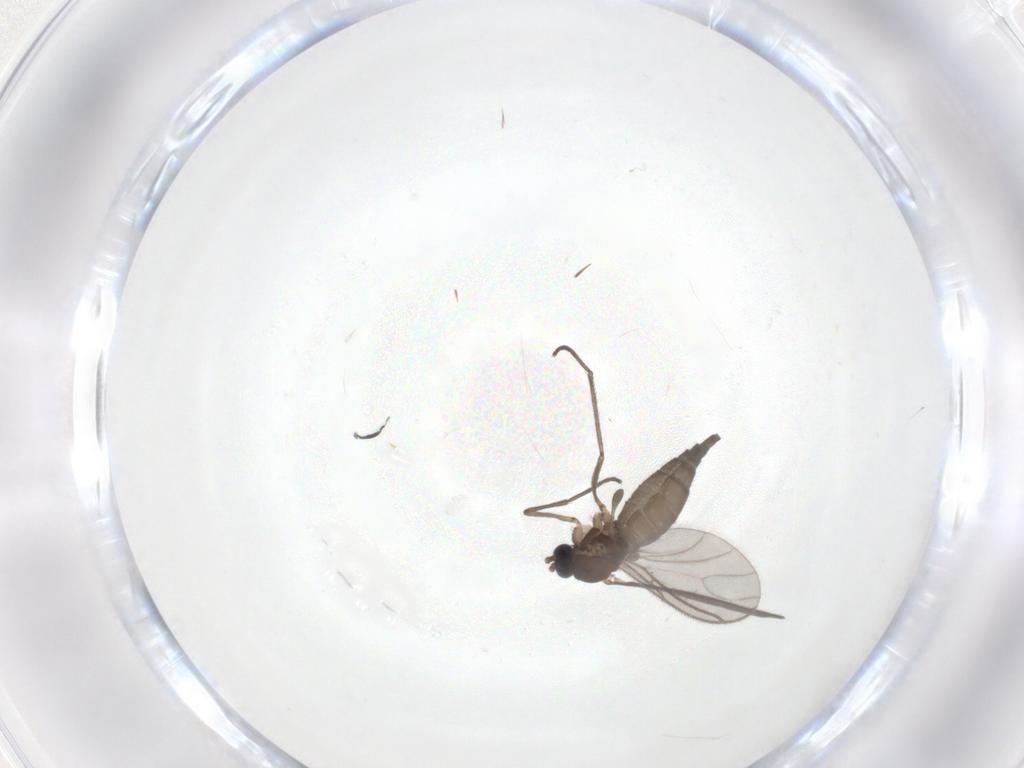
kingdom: Animalia
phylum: Arthropoda
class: Insecta
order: Diptera
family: Sciaridae
